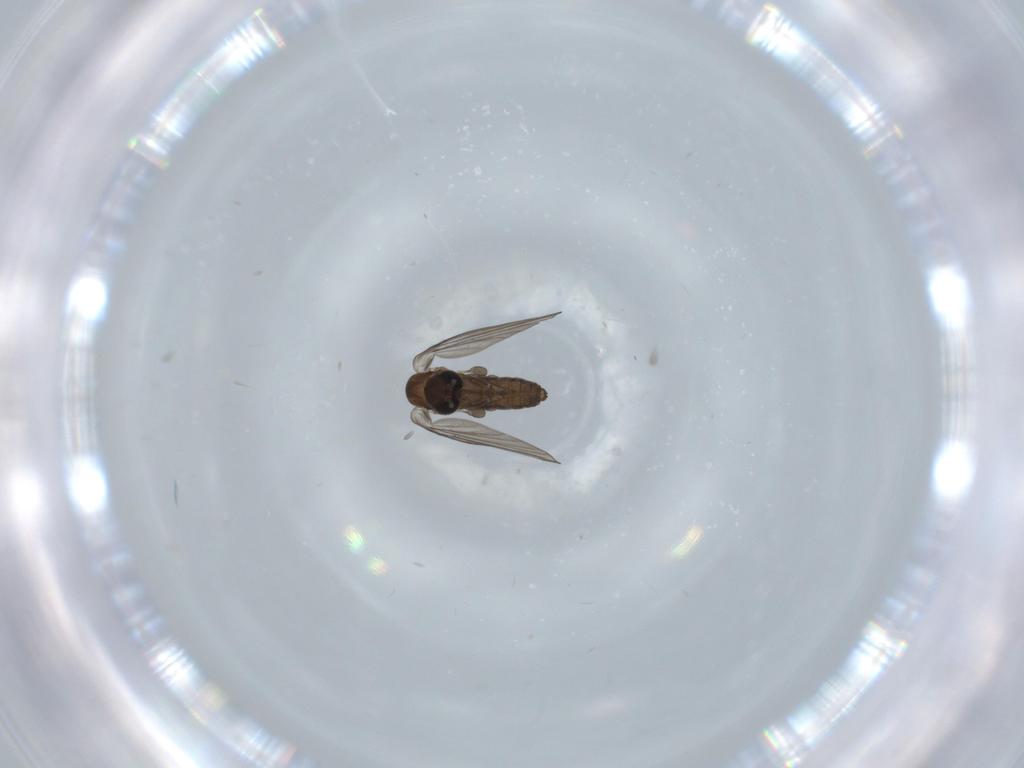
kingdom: Animalia
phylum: Arthropoda
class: Insecta
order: Diptera
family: Psychodidae
